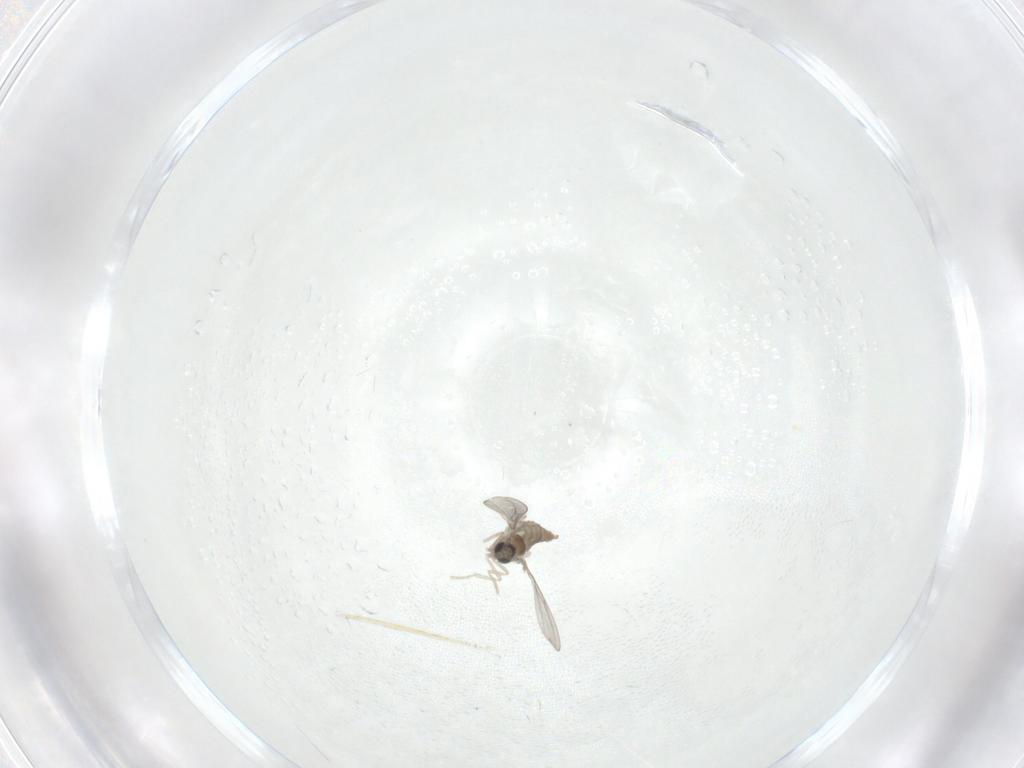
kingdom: Animalia
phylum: Arthropoda
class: Insecta
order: Diptera
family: Cecidomyiidae
